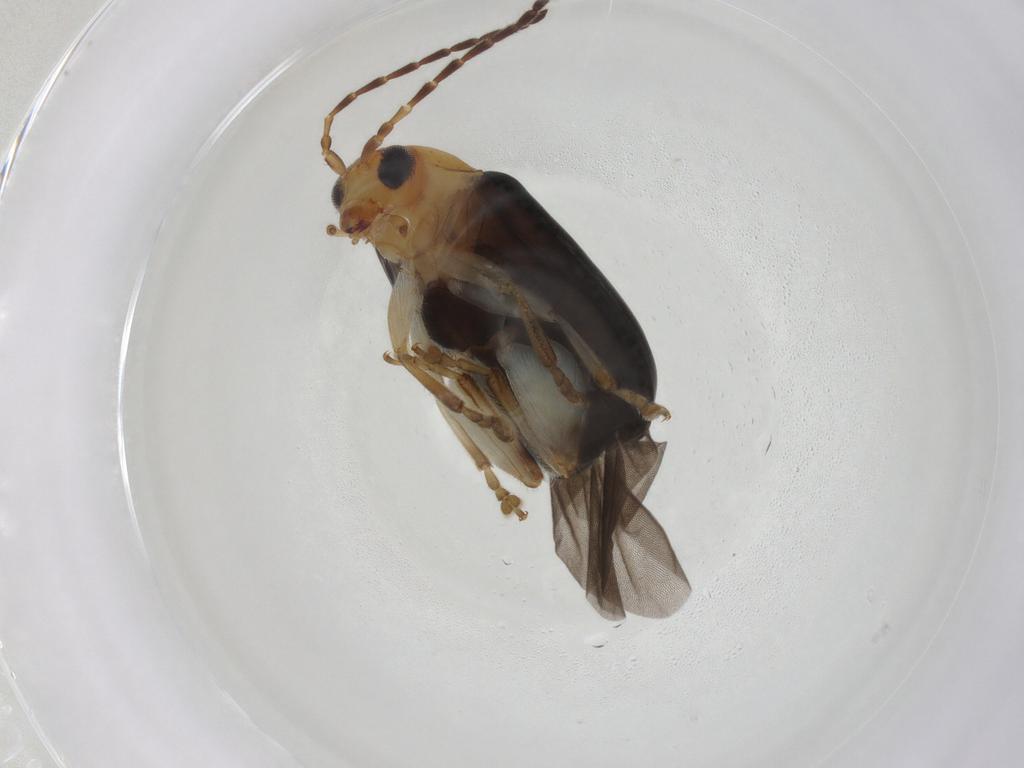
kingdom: Animalia
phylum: Arthropoda
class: Insecta
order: Coleoptera
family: Chrysomelidae
